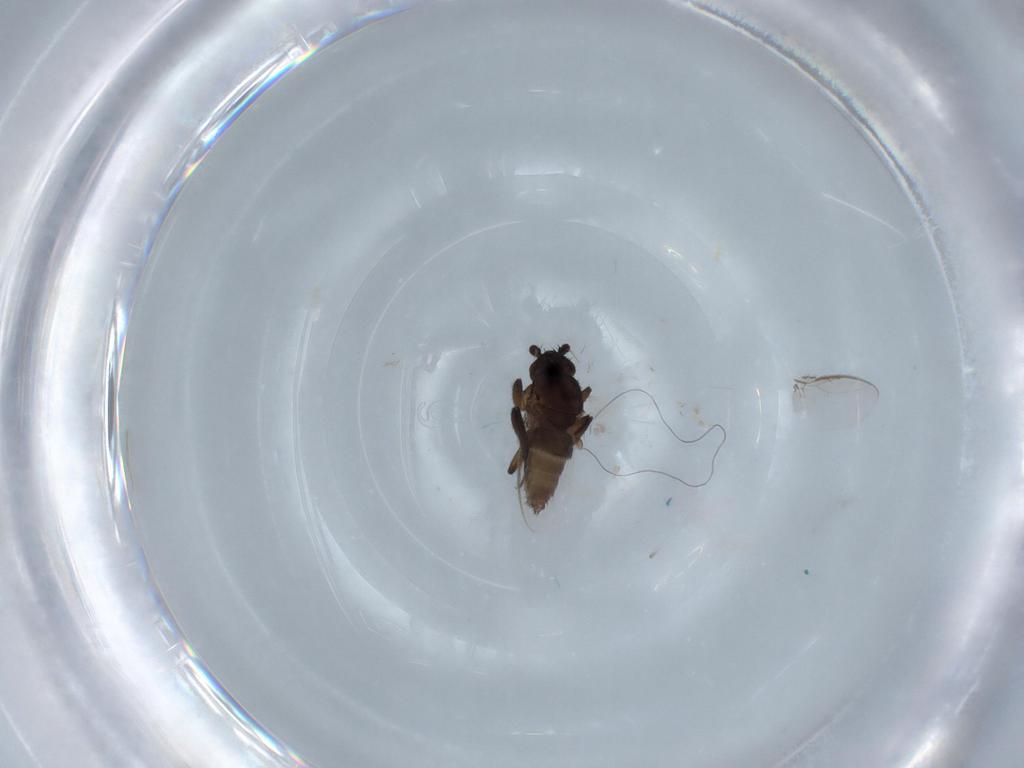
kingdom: Animalia
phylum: Arthropoda
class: Insecta
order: Diptera
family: Sphaeroceridae
